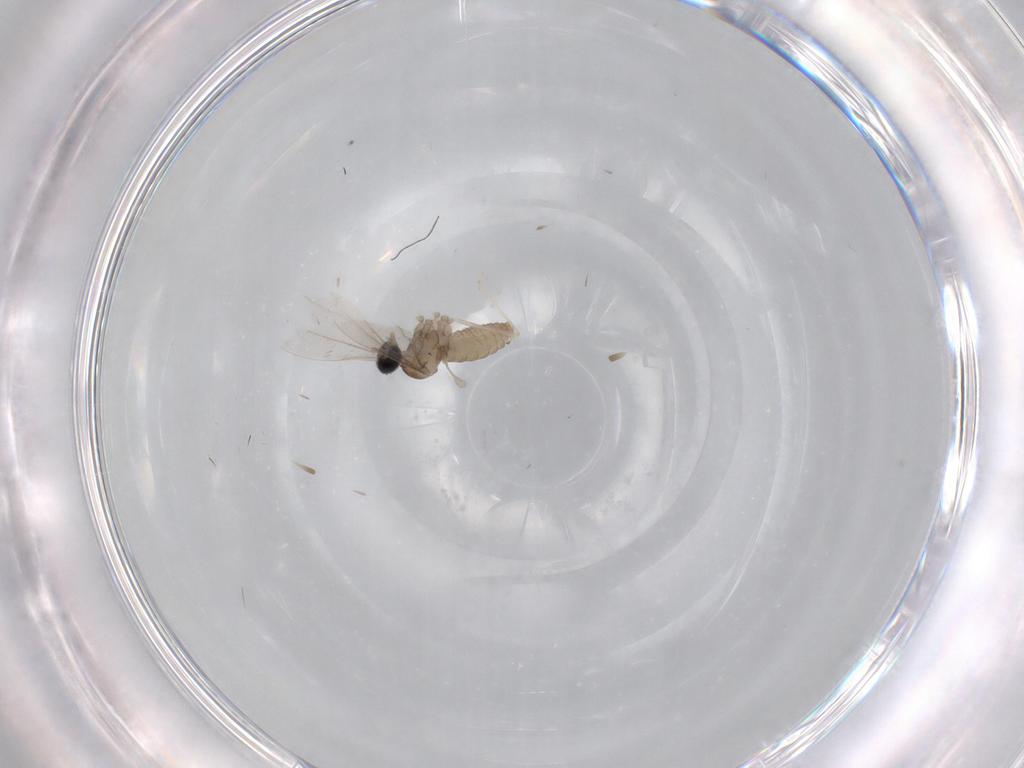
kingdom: Animalia
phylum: Arthropoda
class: Insecta
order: Diptera
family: Cecidomyiidae
